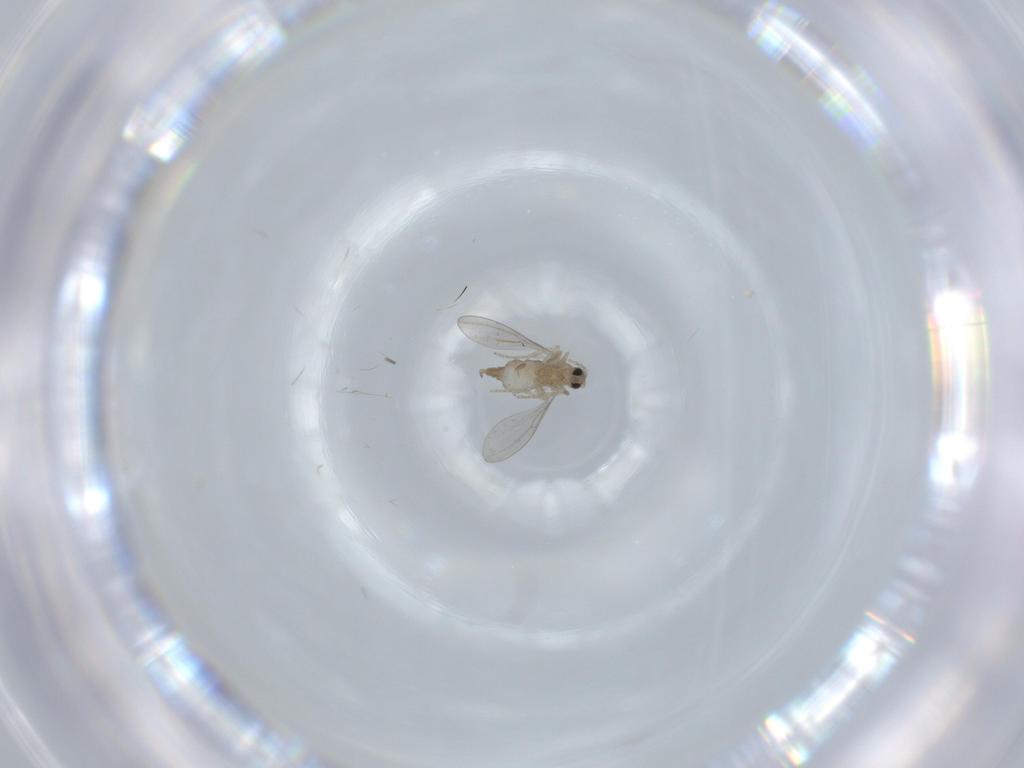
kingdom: Animalia
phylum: Arthropoda
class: Insecta
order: Diptera
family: Cecidomyiidae
